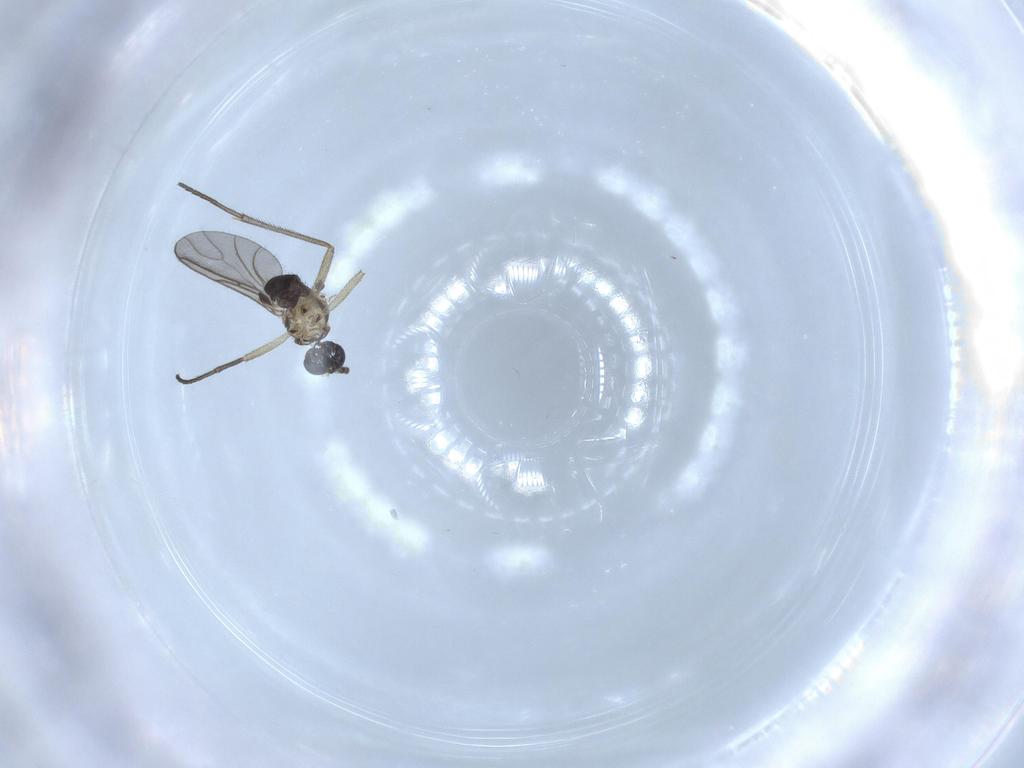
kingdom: Animalia
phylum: Arthropoda
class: Insecta
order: Diptera
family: Sciaridae
